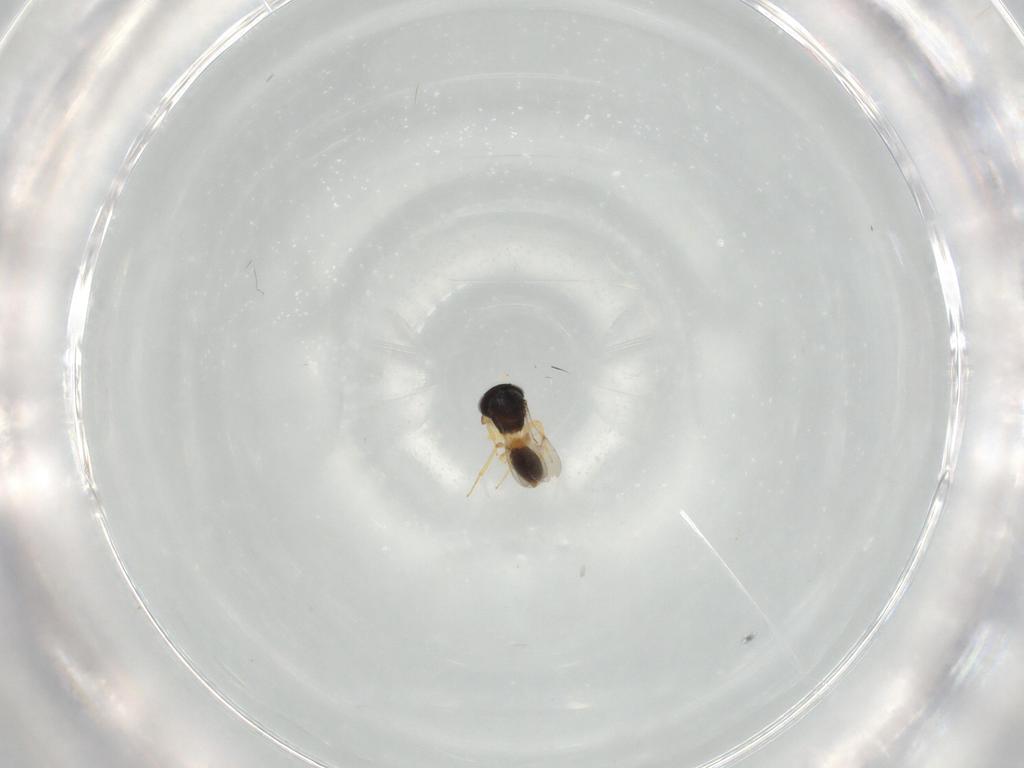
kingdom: Animalia
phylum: Arthropoda
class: Insecta
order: Hymenoptera
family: Scelionidae
